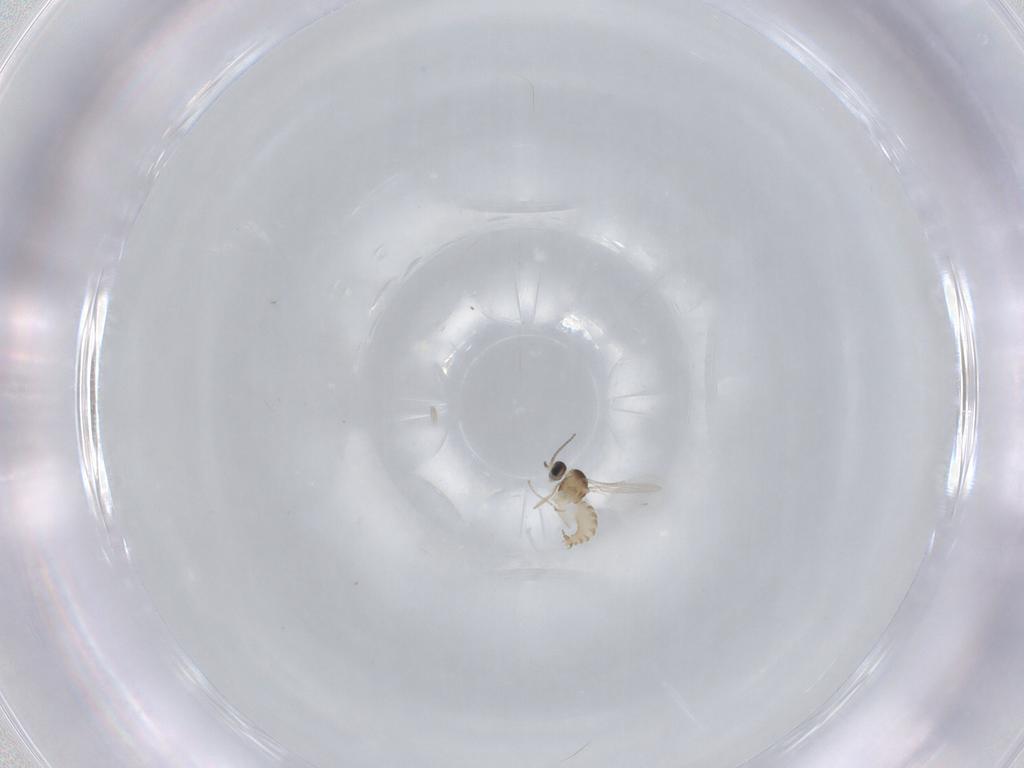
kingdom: Animalia
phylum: Arthropoda
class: Insecta
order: Diptera
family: Cecidomyiidae
